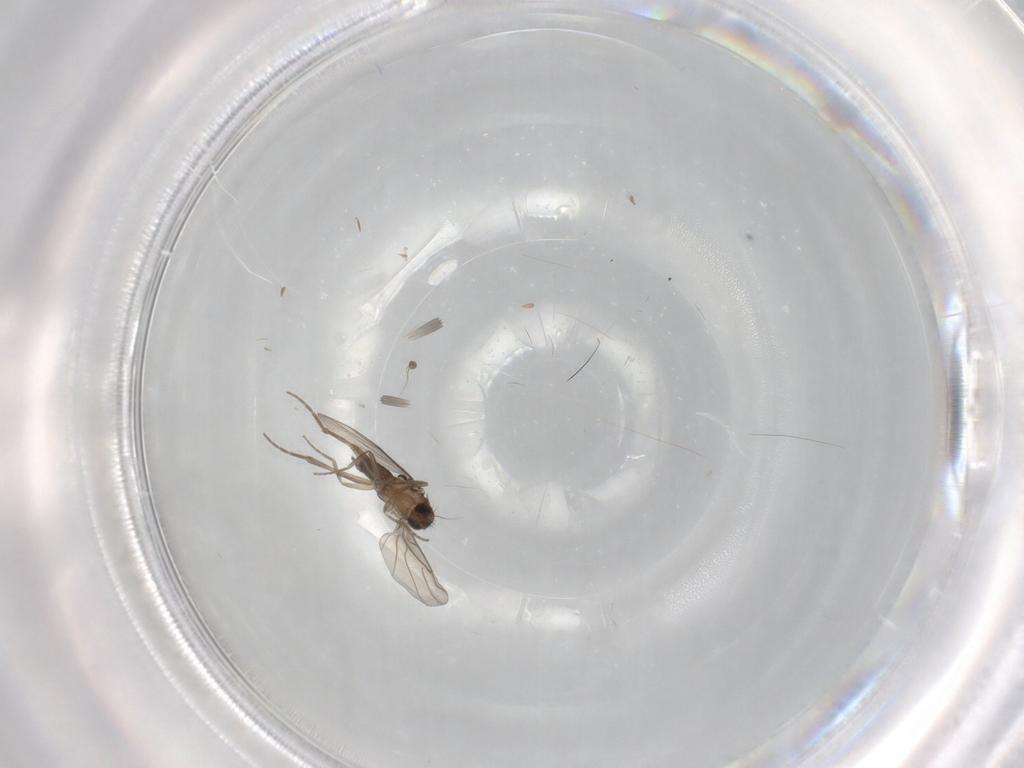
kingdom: Animalia
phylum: Arthropoda
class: Insecta
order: Diptera
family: Cecidomyiidae
